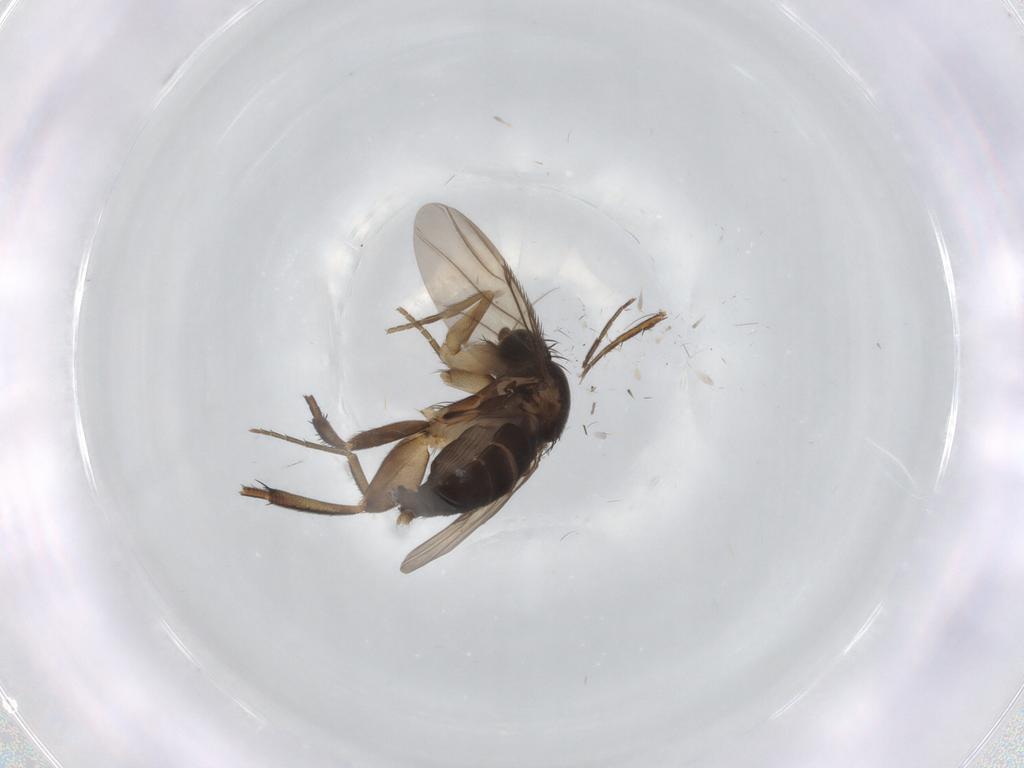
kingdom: Animalia
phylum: Arthropoda
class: Insecta
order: Diptera
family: Phoridae
